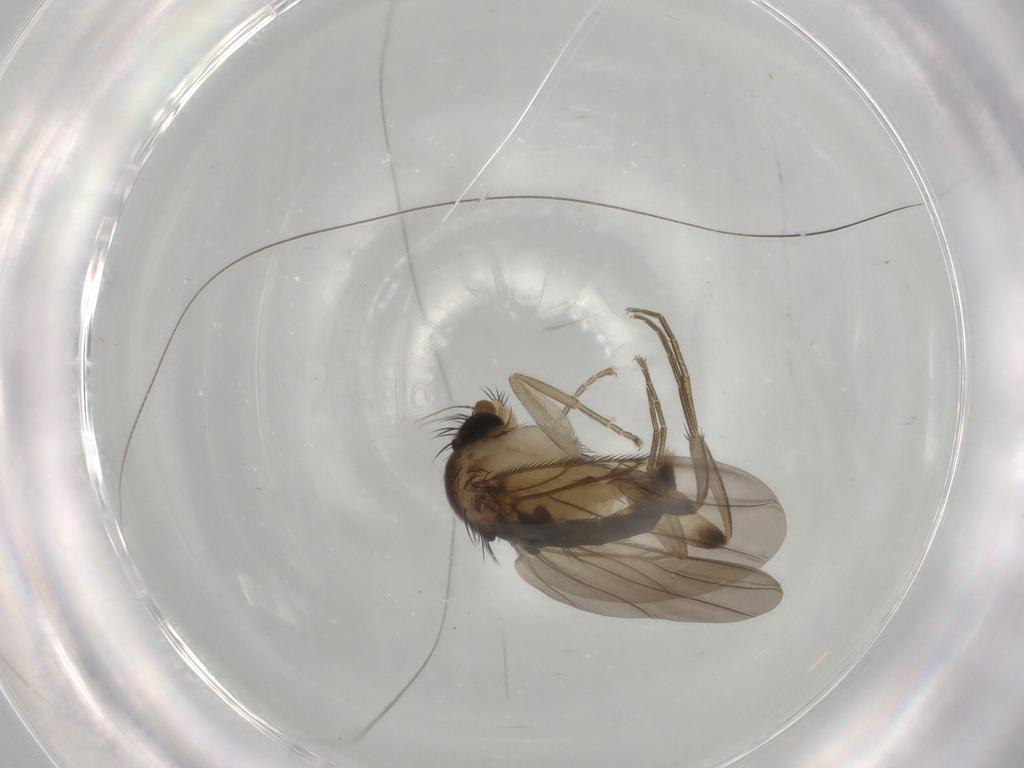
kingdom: Animalia
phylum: Arthropoda
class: Insecta
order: Diptera
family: Phoridae
